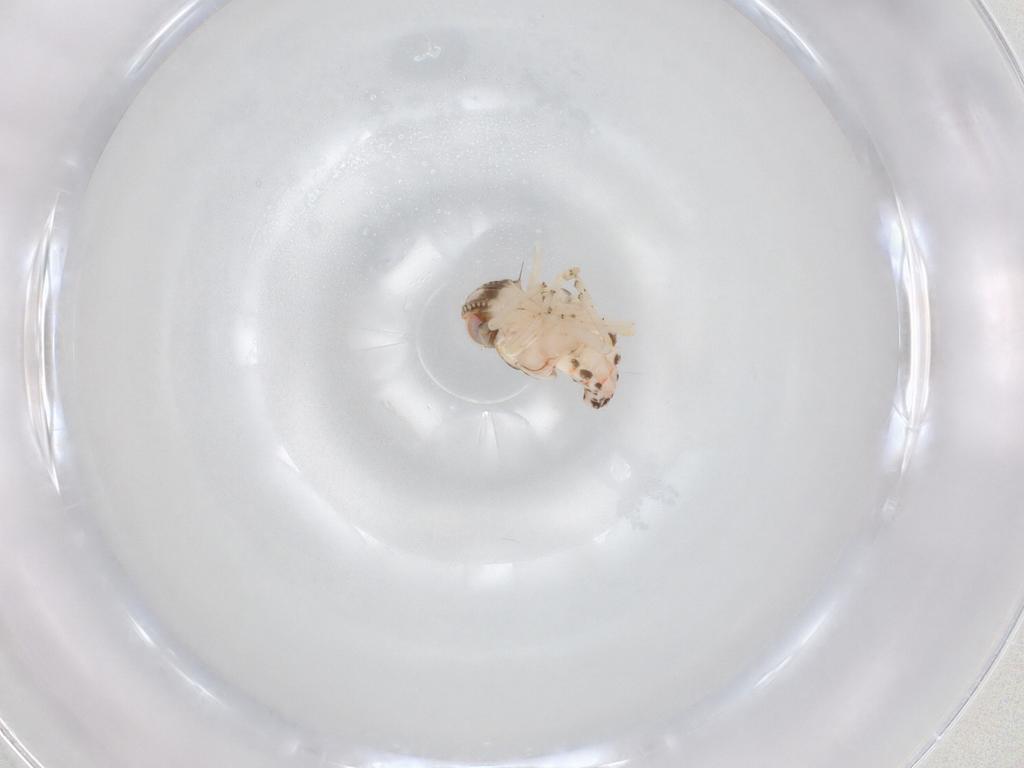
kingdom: Animalia
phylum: Arthropoda
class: Insecta
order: Hemiptera
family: Nogodinidae
